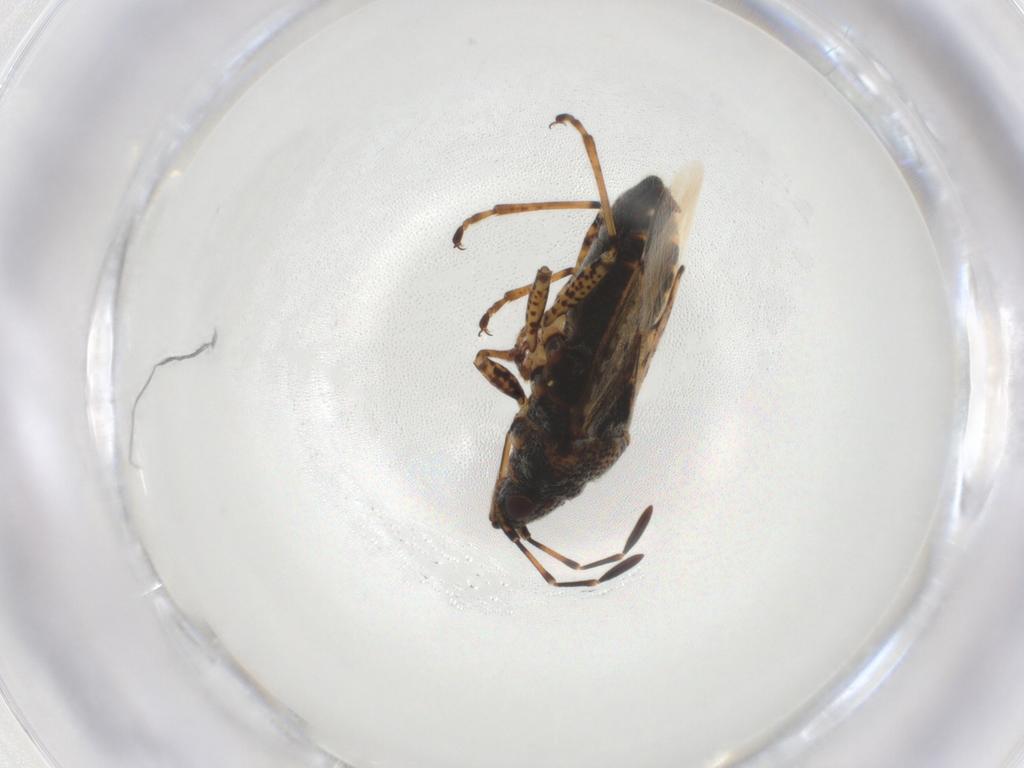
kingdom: Animalia
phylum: Arthropoda
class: Insecta
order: Hemiptera
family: Lygaeidae
